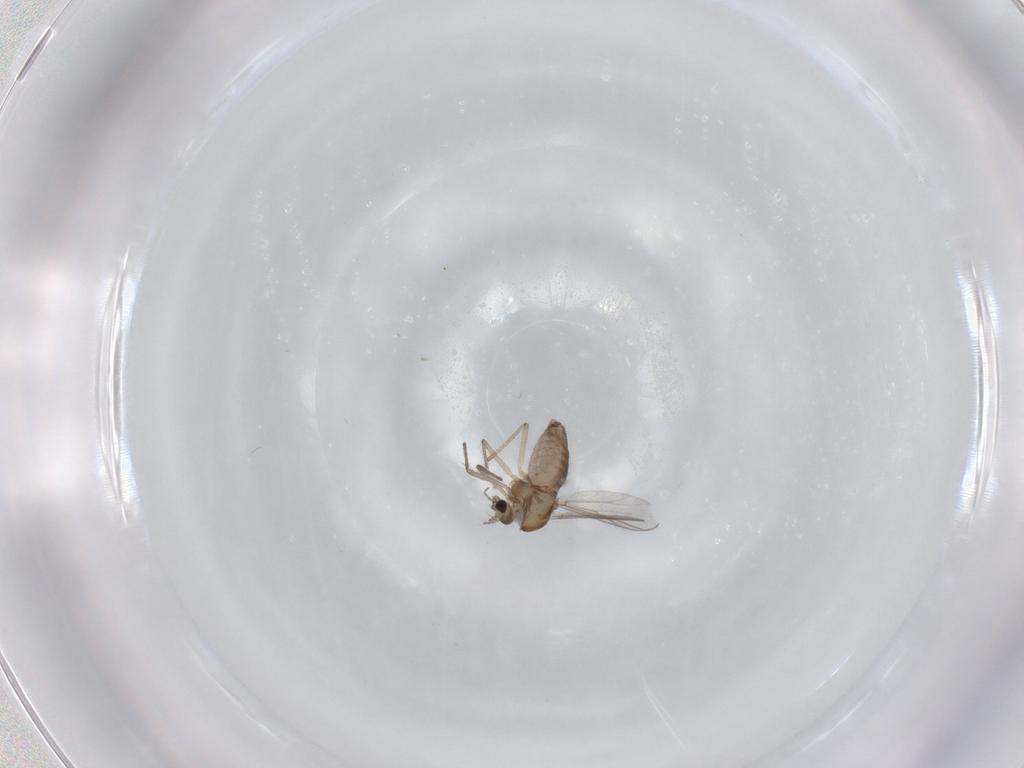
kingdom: Animalia
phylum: Arthropoda
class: Insecta
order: Diptera
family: Chironomidae
